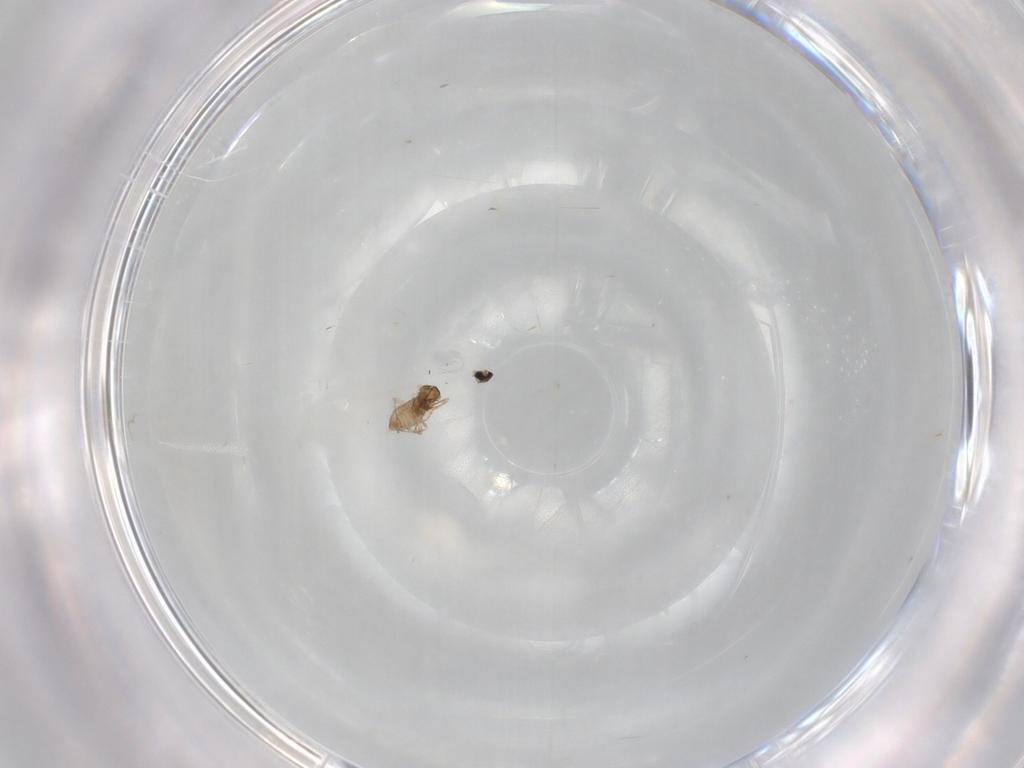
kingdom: Animalia
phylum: Arthropoda
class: Insecta
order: Diptera
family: Cecidomyiidae
